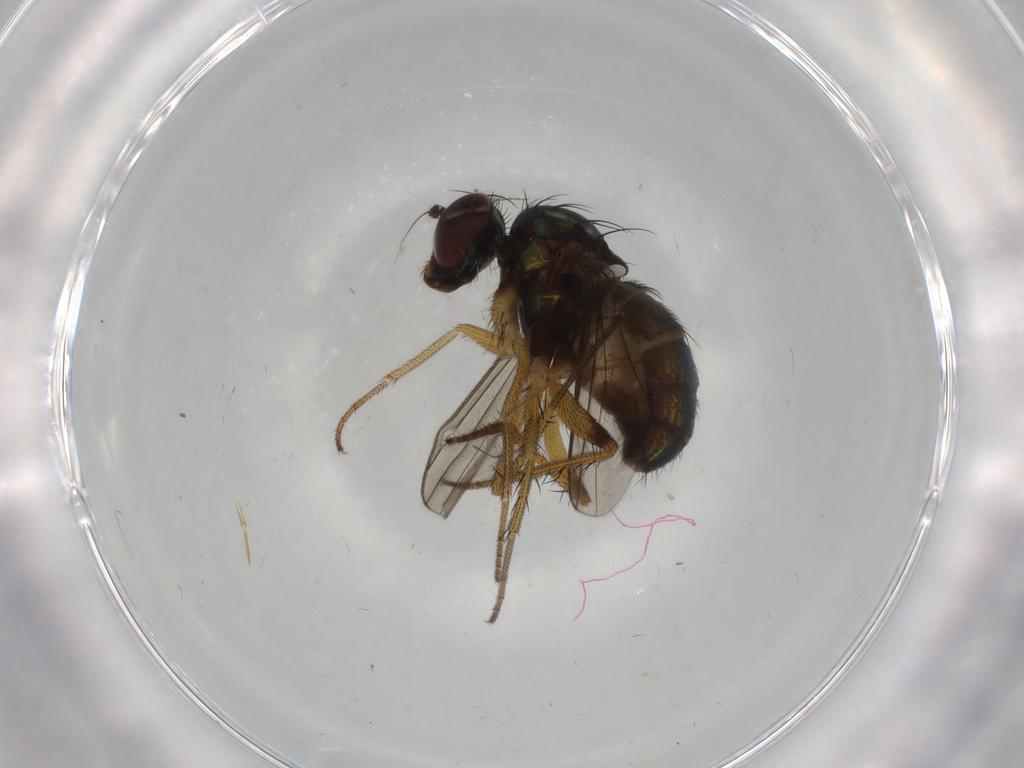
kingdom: Animalia
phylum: Arthropoda
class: Insecta
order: Diptera
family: Dolichopodidae
